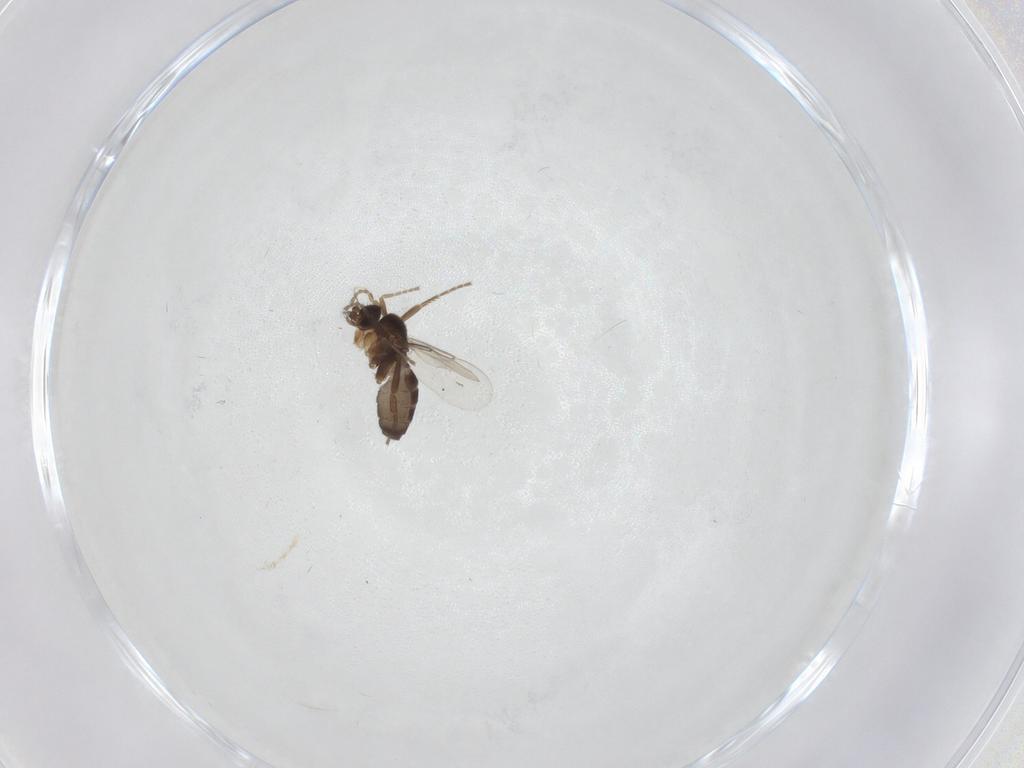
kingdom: Animalia
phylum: Arthropoda
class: Insecta
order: Diptera
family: Phoridae
